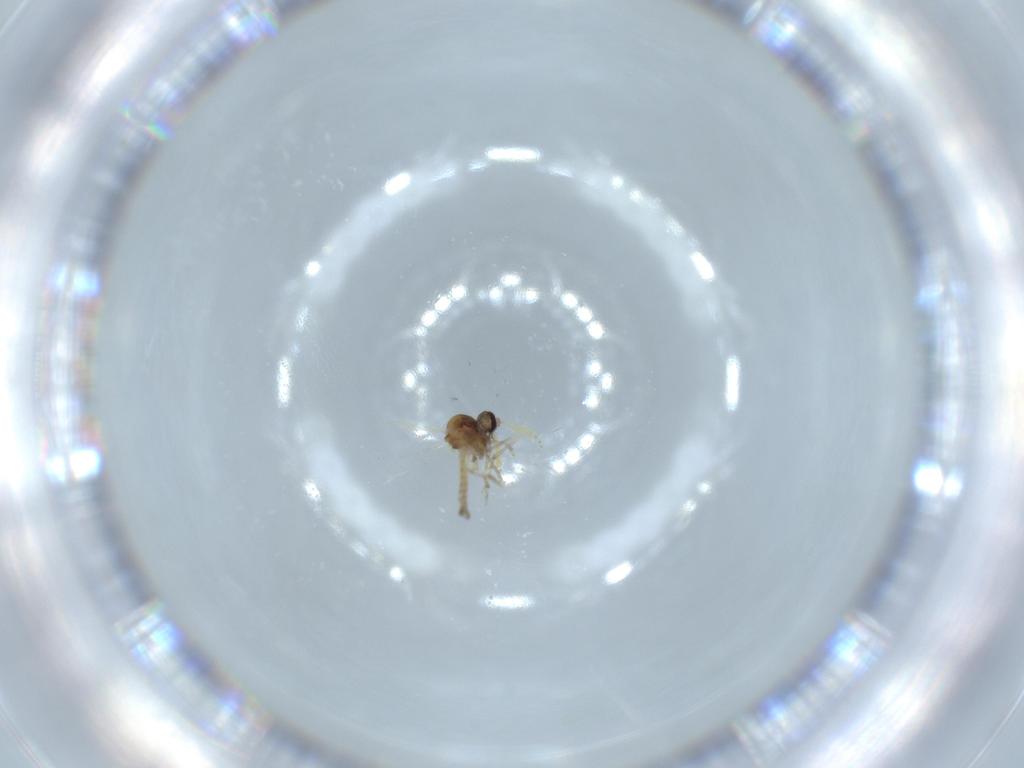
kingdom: Animalia
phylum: Arthropoda
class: Insecta
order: Diptera
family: Ceratopogonidae
